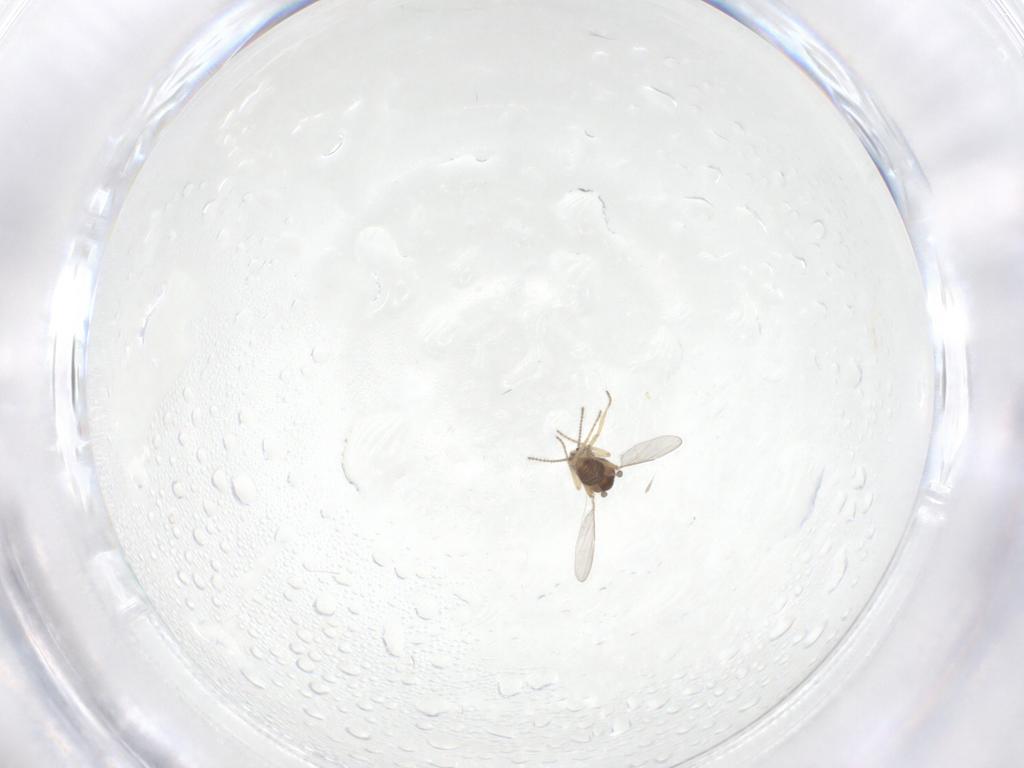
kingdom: Animalia
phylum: Arthropoda
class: Insecta
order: Diptera
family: Ceratopogonidae
